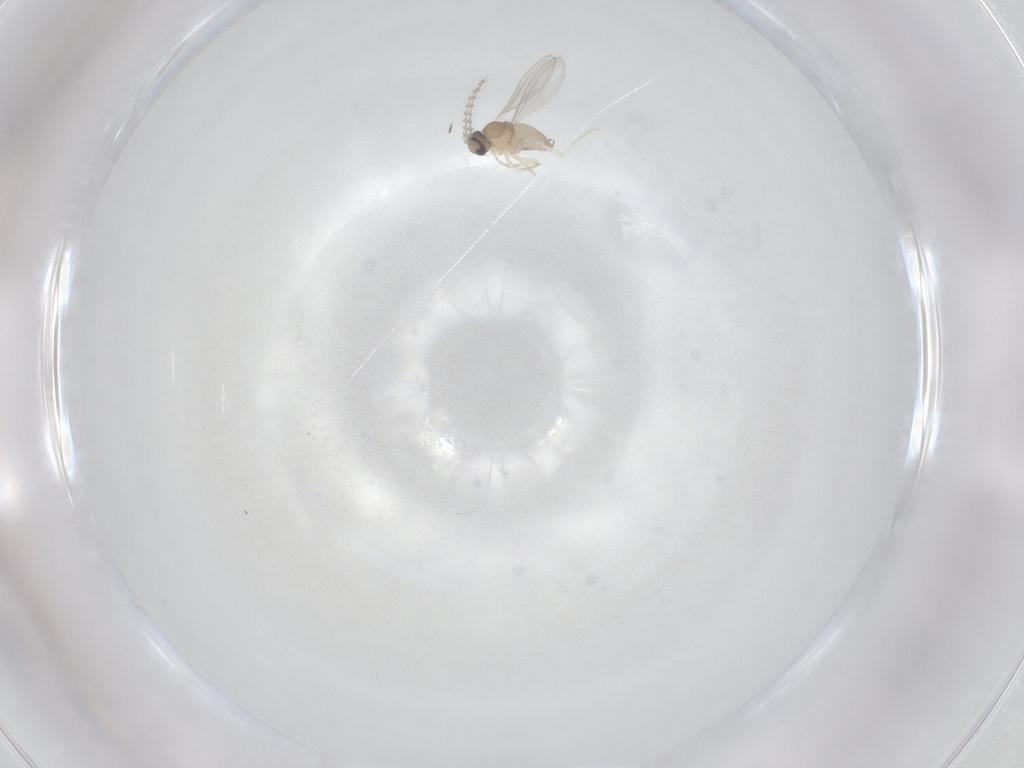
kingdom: Animalia
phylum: Arthropoda
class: Insecta
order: Diptera
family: Cecidomyiidae
